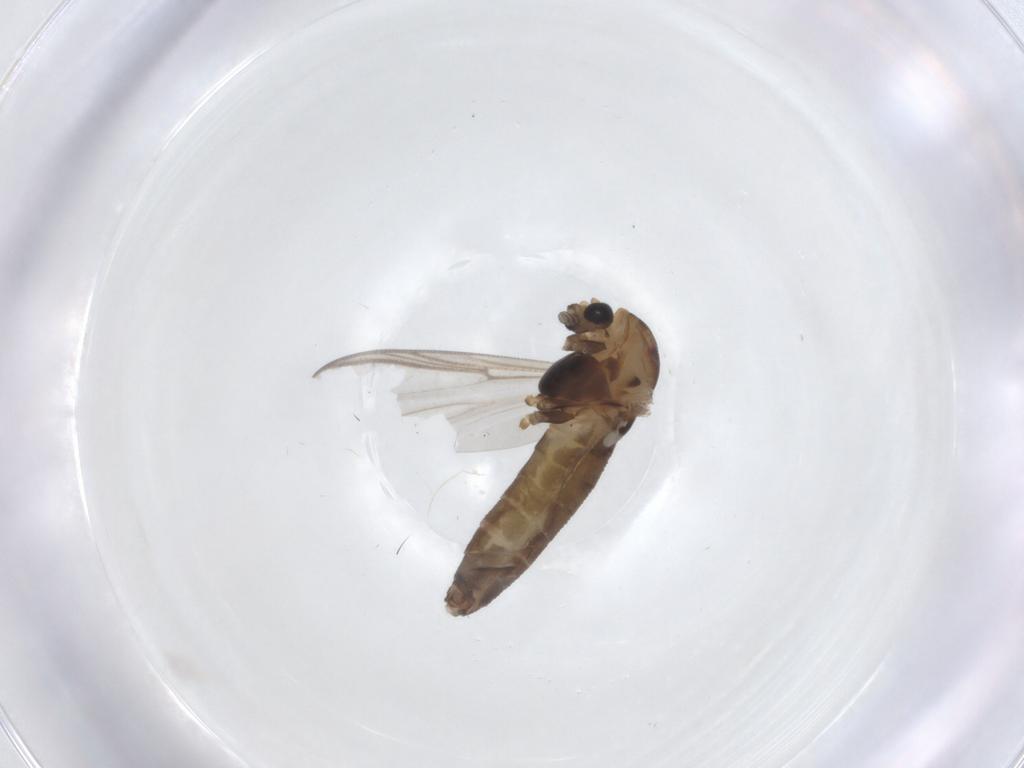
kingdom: Animalia
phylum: Arthropoda
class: Insecta
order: Diptera
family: Chironomidae
